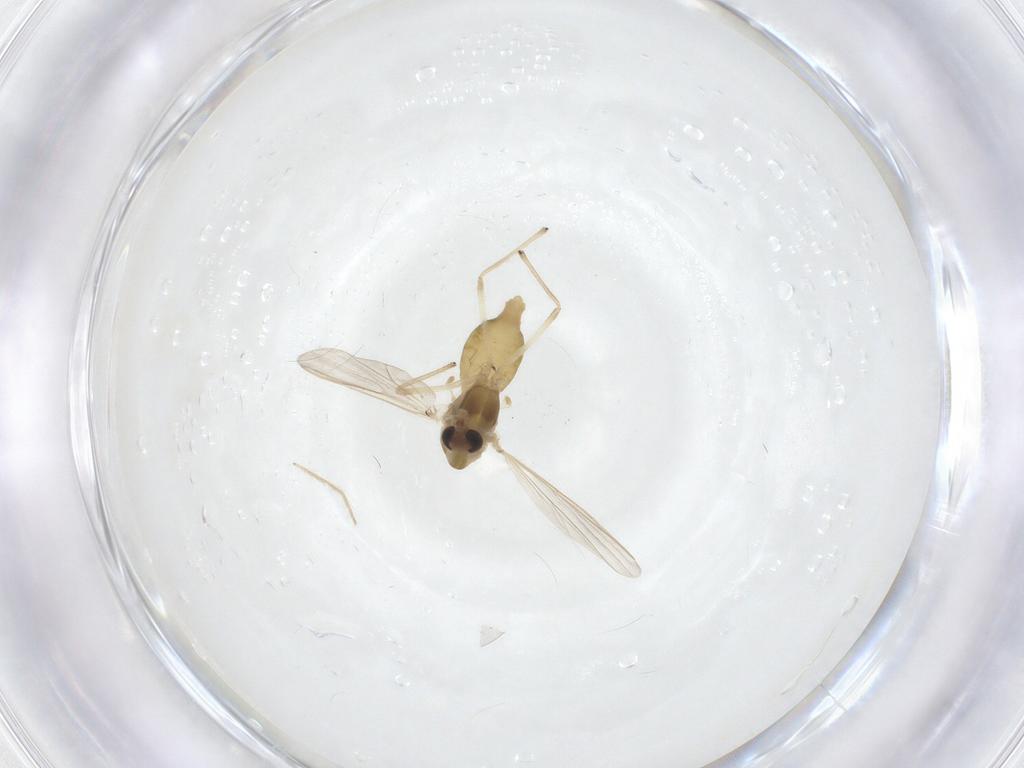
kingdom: Animalia
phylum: Arthropoda
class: Insecta
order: Diptera
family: Chironomidae
